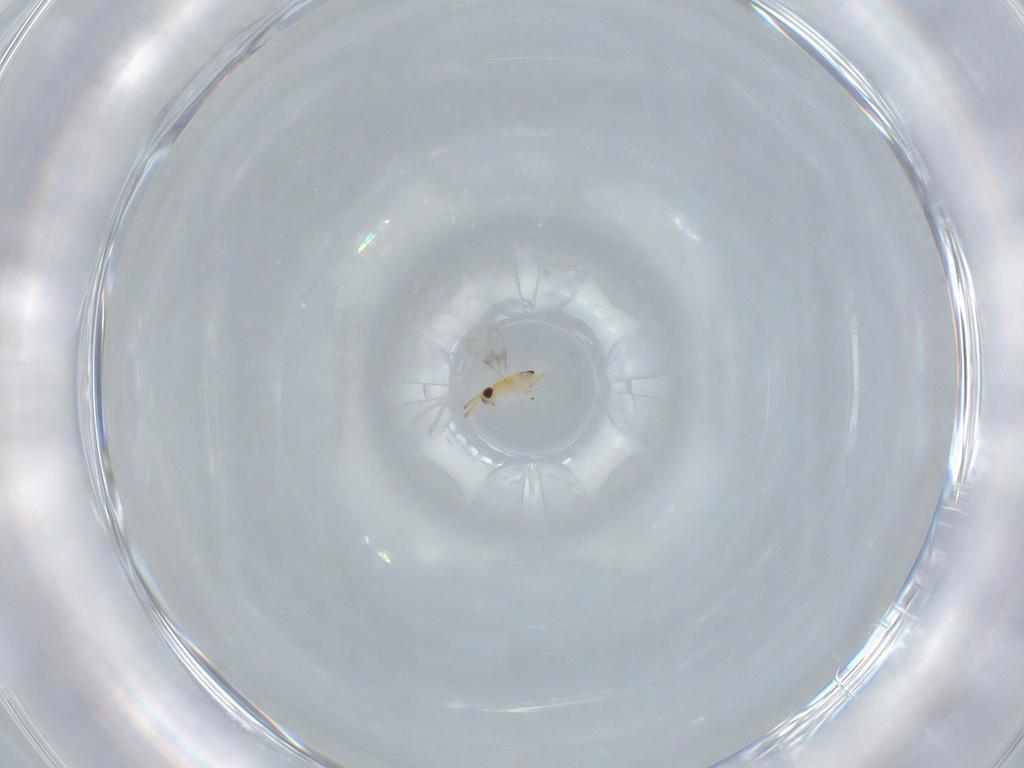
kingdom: Animalia
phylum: Arthropoda
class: Insecta
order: Hymenoptera
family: Aphelinidae
